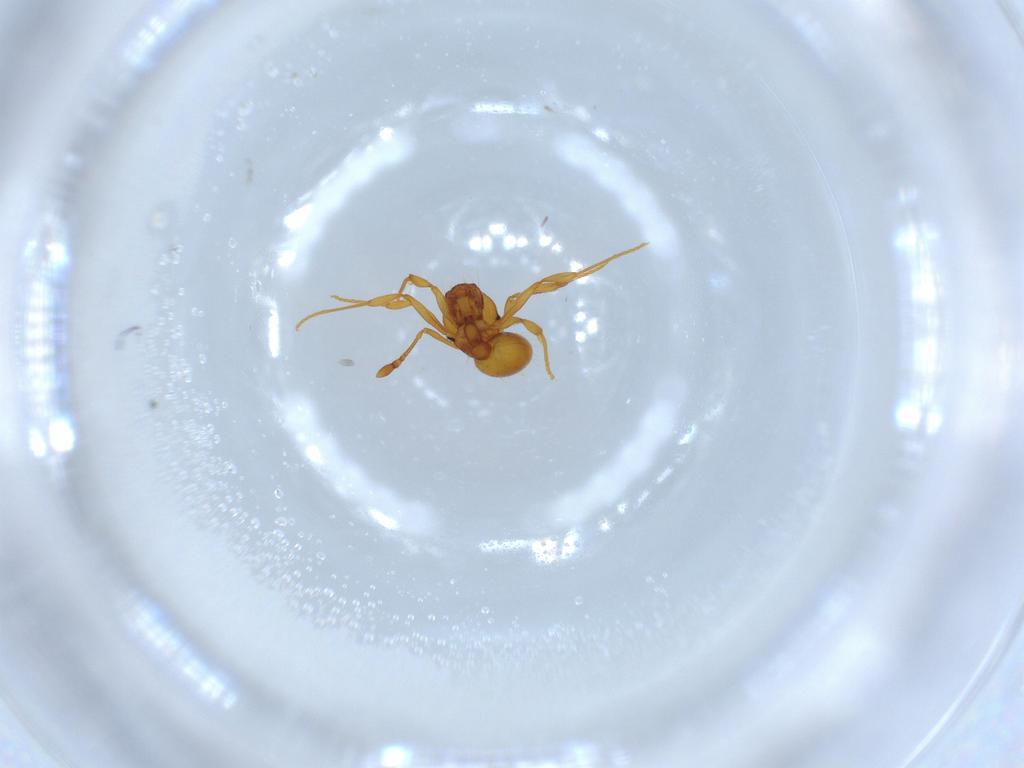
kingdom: Animalia
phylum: Arthropoda
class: Insecta
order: Hymenoptera
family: Formicidae
